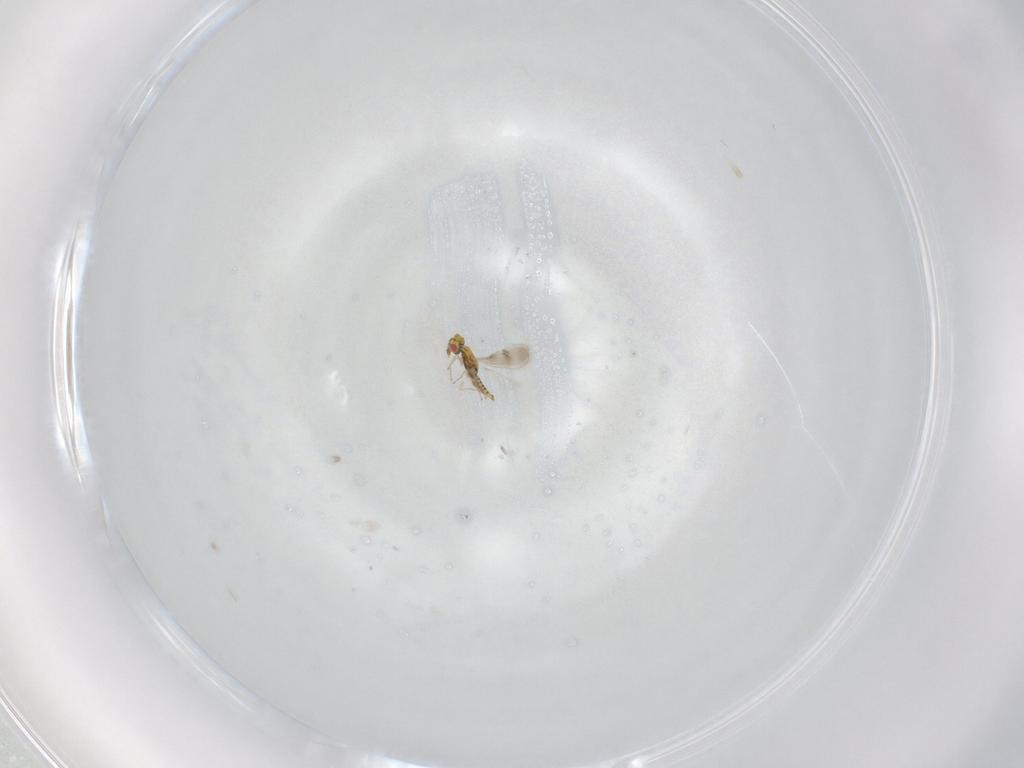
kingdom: Animalia
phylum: Arthropoda
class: Insecta
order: Hymenoptera
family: Eulophidae
